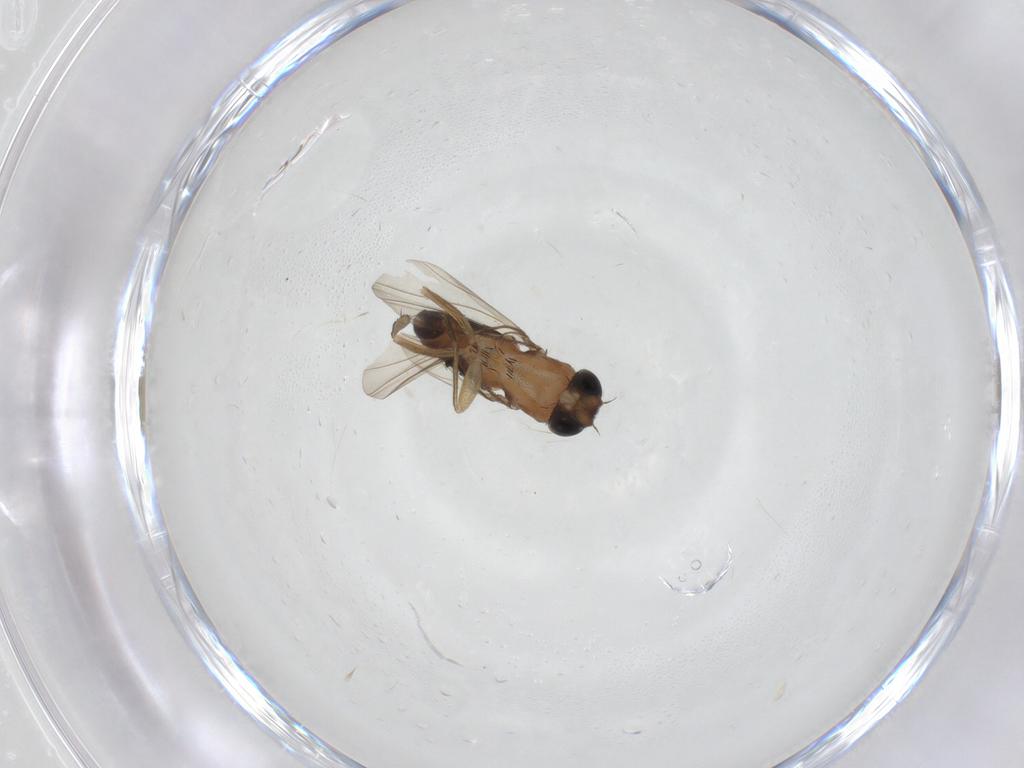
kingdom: Animalia
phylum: Arthropoda
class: Insecta
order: Diptera
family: Phoridae
